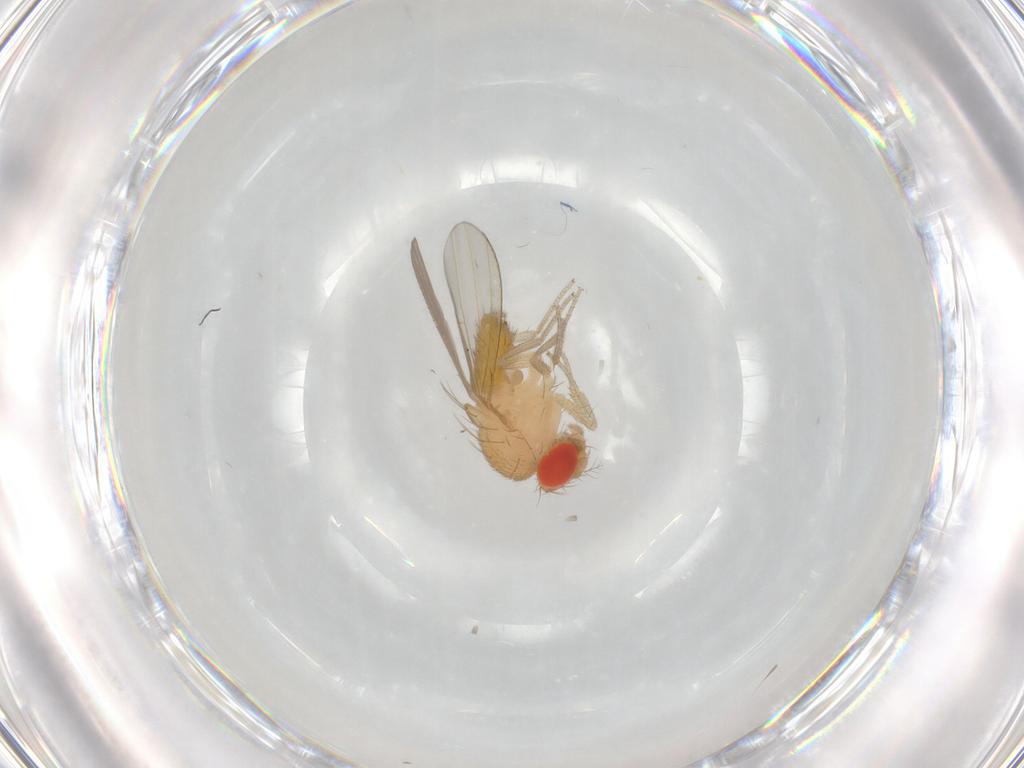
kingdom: Animalia
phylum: Arthropoda
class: Insecta
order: Diptera
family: Drosophilidae
